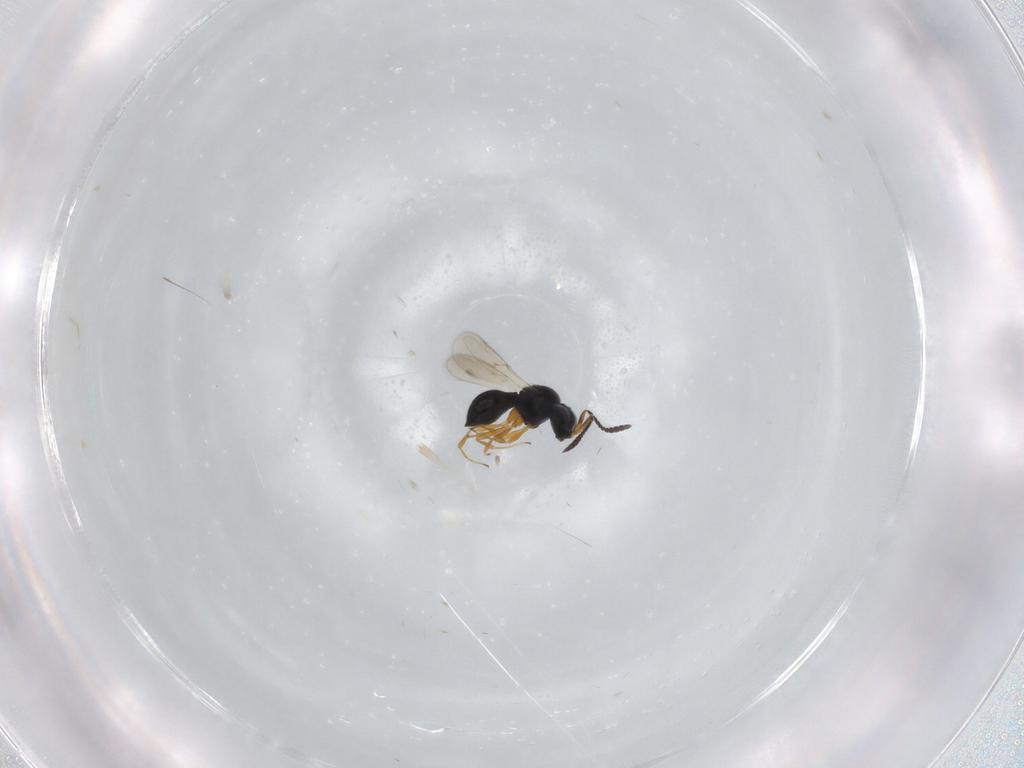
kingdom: Animalia
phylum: Arthropoda
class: Insecta
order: Hymenoptera
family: Scelionidae
